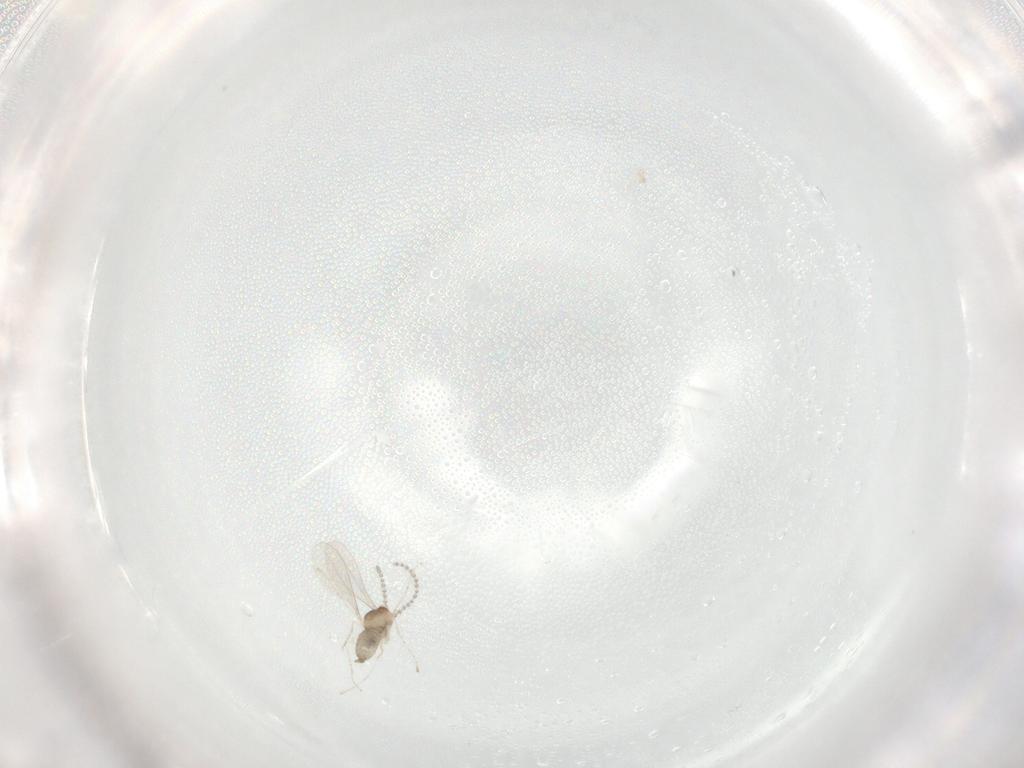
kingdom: Animalia
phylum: Arthropoda
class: Insecta
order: Diptera
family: Cecidomyiidae
